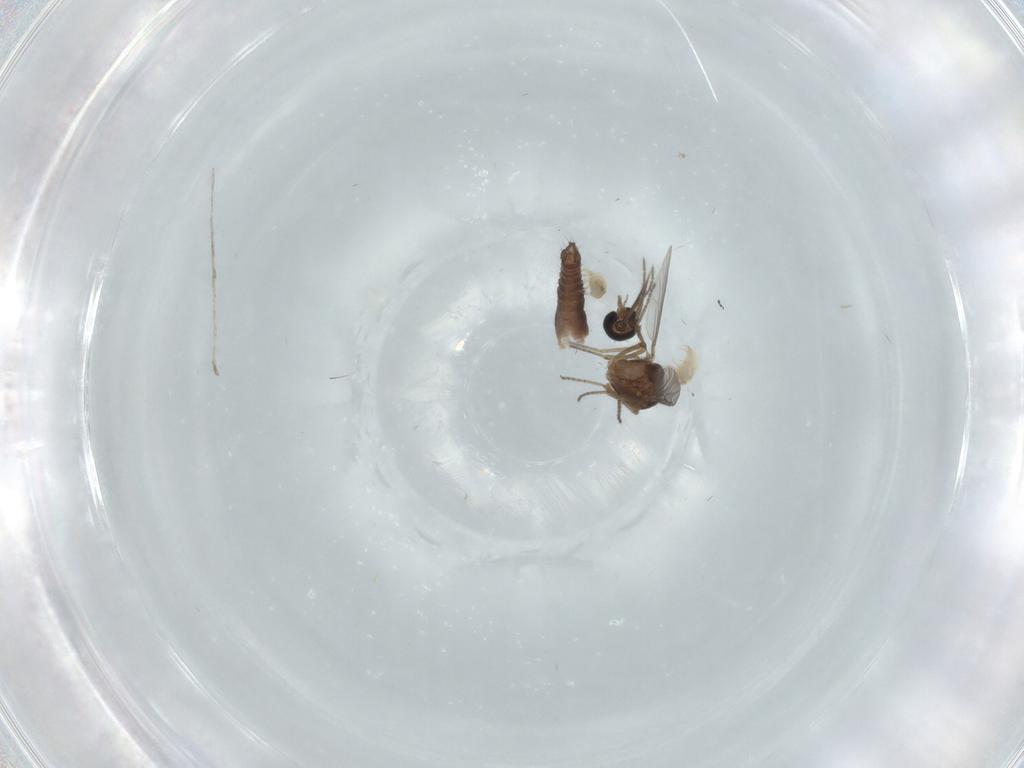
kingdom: Animalia
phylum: Arthropoda
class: Insecta
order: Diptera
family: Ceratopogonidae
